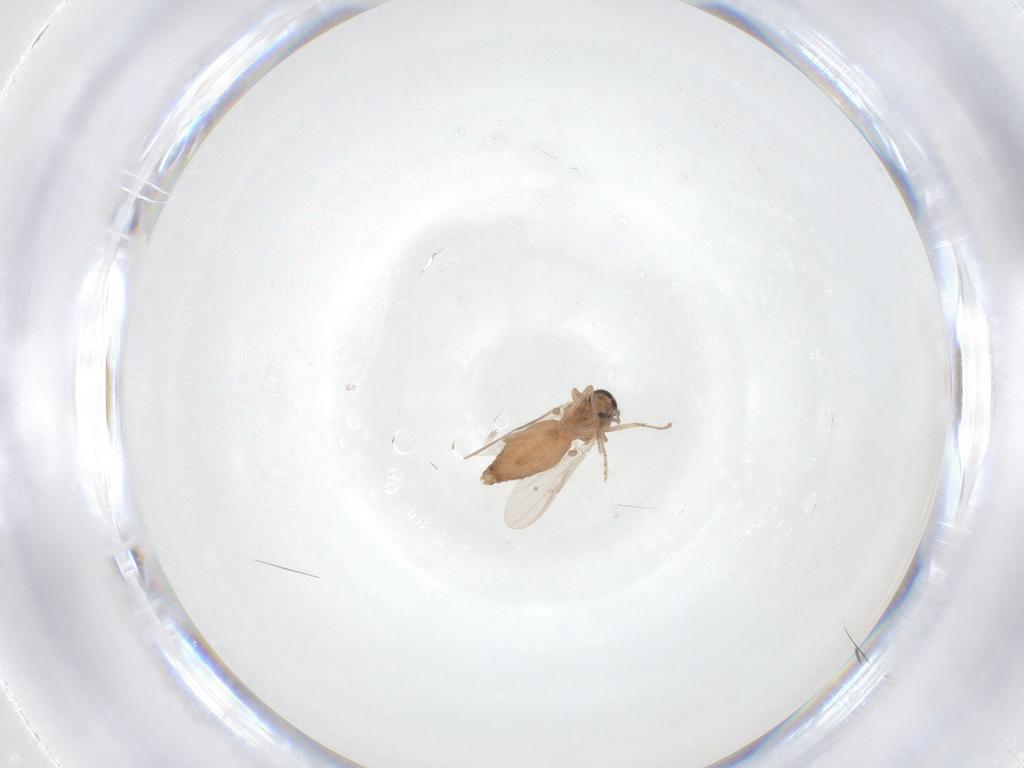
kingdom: Animalia
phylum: Arthropoda
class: Insecta
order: Diptera
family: Ceratopogonidae
